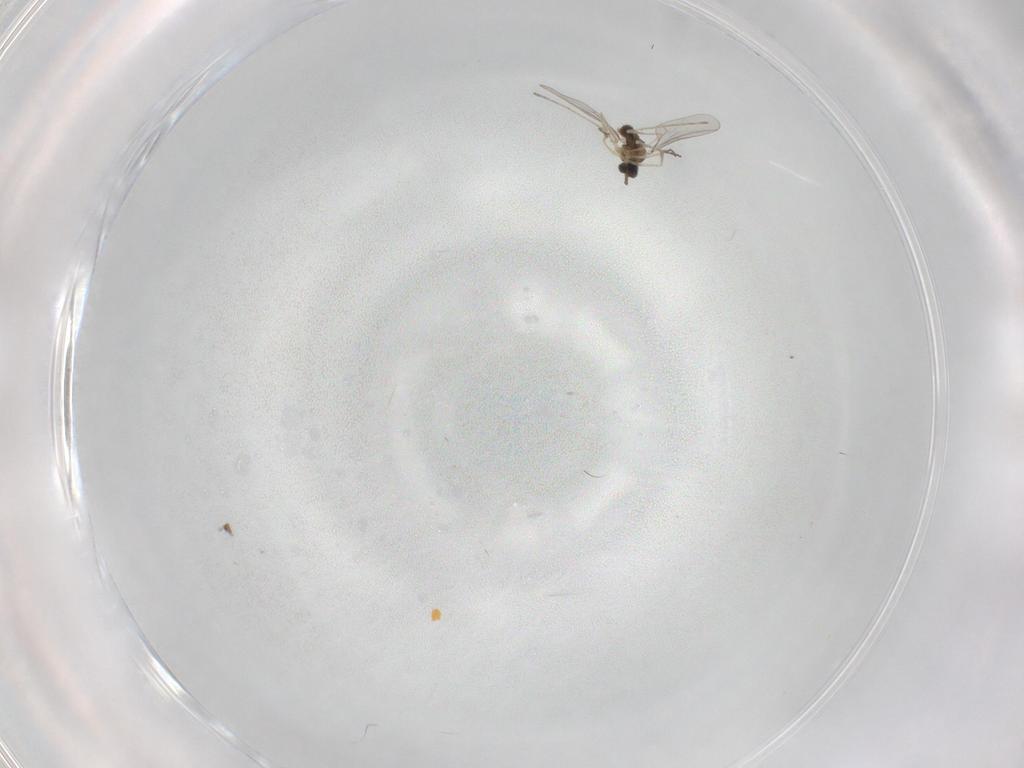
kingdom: Animalia
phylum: Arthropoda
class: Insecta
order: Diptera
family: Cecidomyiidae
